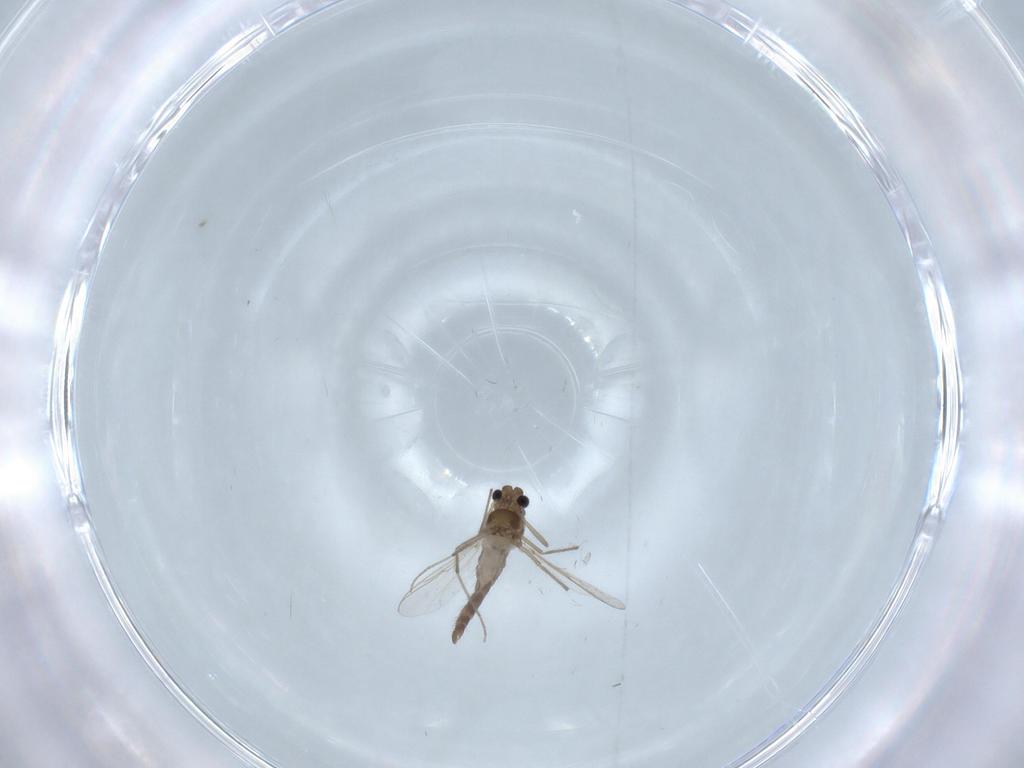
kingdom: Animalia
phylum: Arthropoda
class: Insecta
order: Diptera
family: Chironomidae
